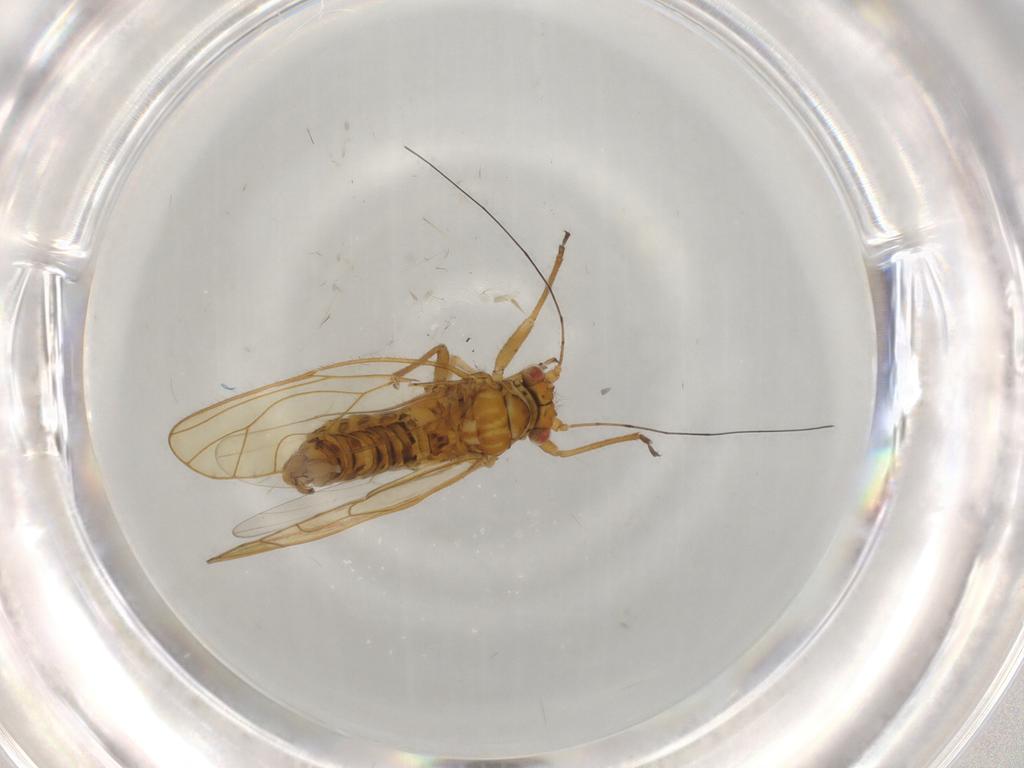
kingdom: Animalia
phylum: Arthropoda
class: Insecta
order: Hemiptera
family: Psyllidae
